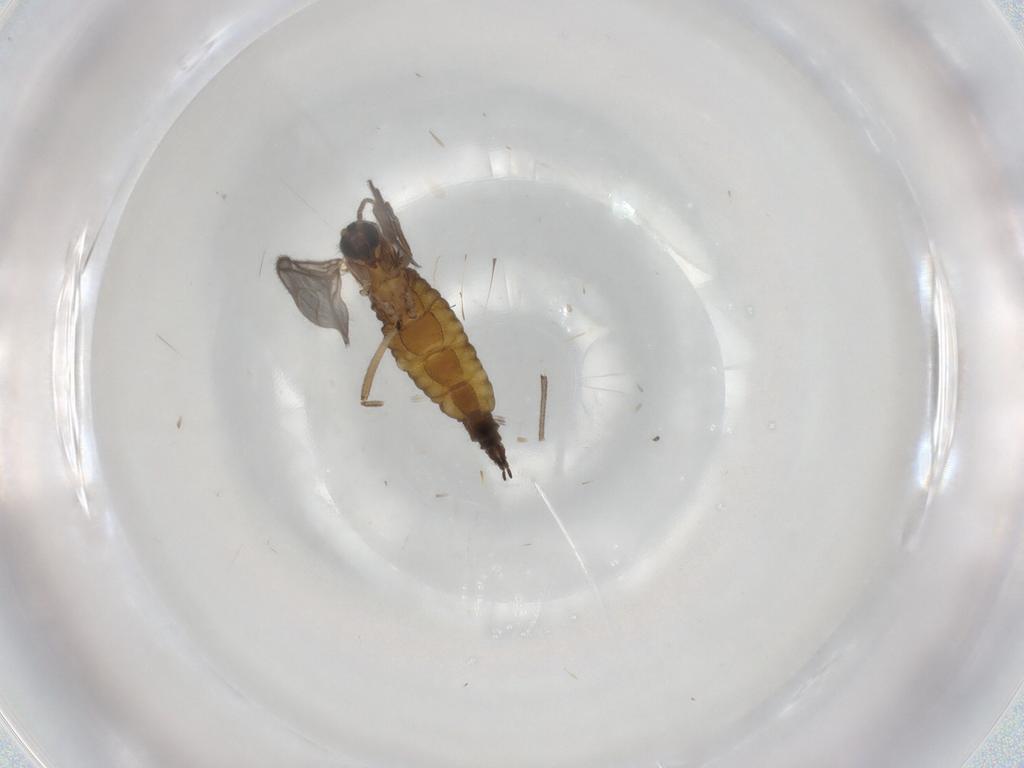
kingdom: Animalia
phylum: Arthropoda
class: Insecta
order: Diptera
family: Sciaridae
